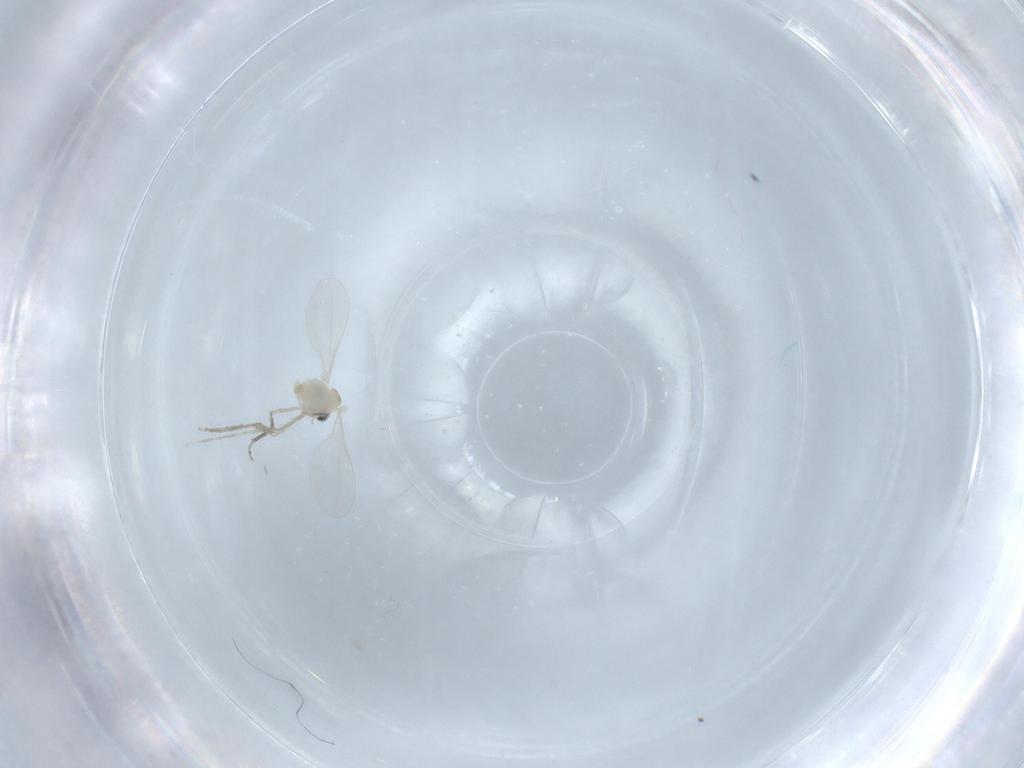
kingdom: Animalia
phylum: Arthropoda
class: Insecta
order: Diptera
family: Cecidomyiidae
